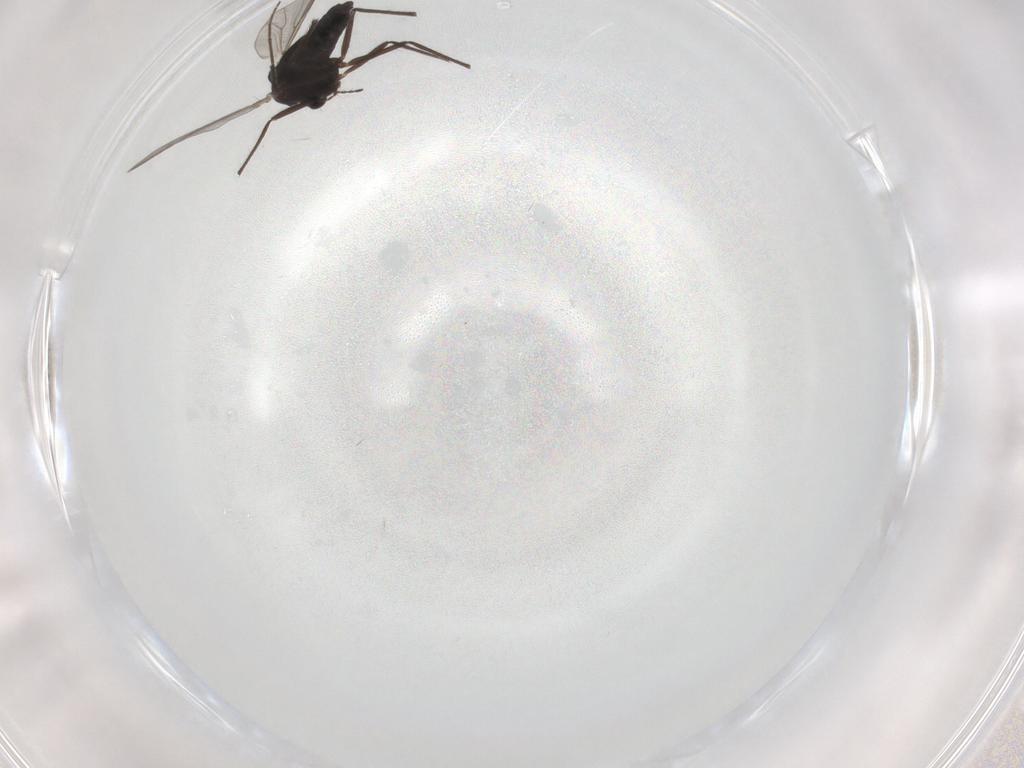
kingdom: Animalia
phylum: Arthropoda
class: Insecta
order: Diptera
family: Chironomidae
